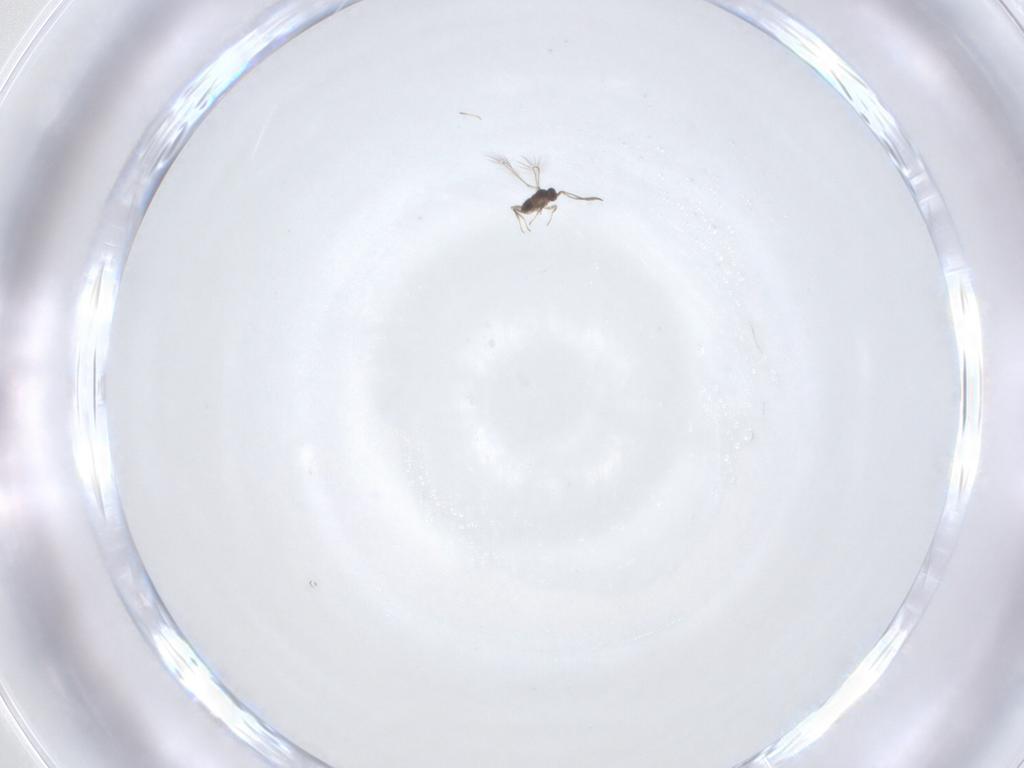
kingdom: Animalia
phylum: Arthropoda
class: Insecta
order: Hymenoptera
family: Mymaridae
